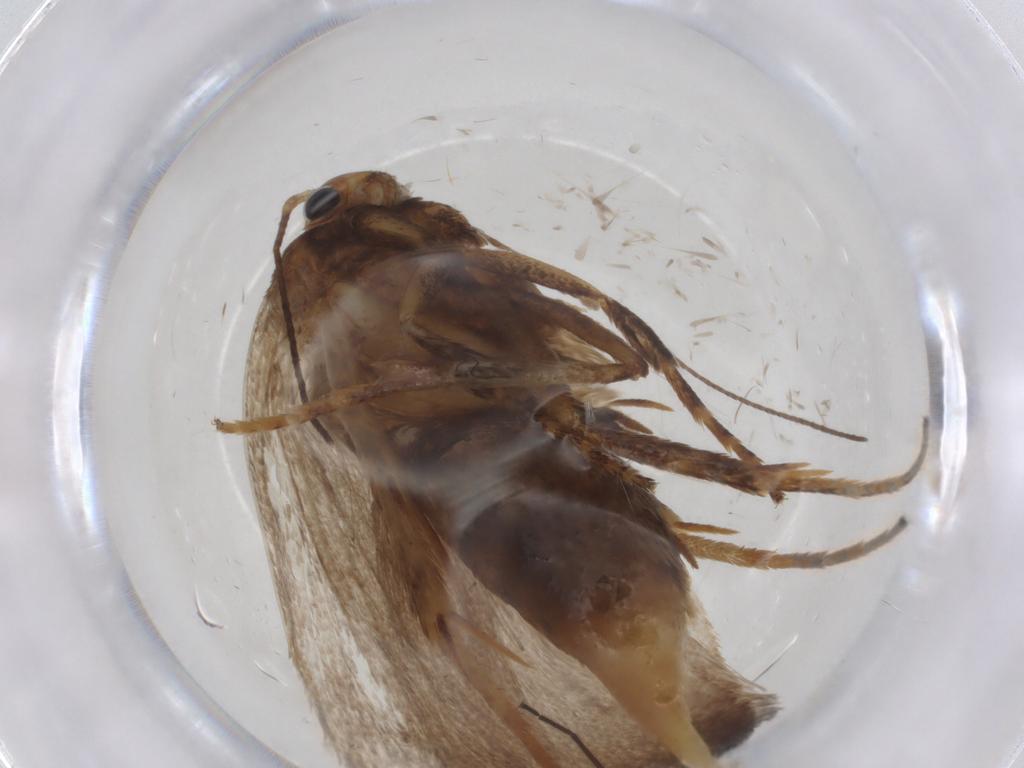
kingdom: Animalia
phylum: Arthropoda
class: Insecta
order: Lepidoptera
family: Oecophoridae
